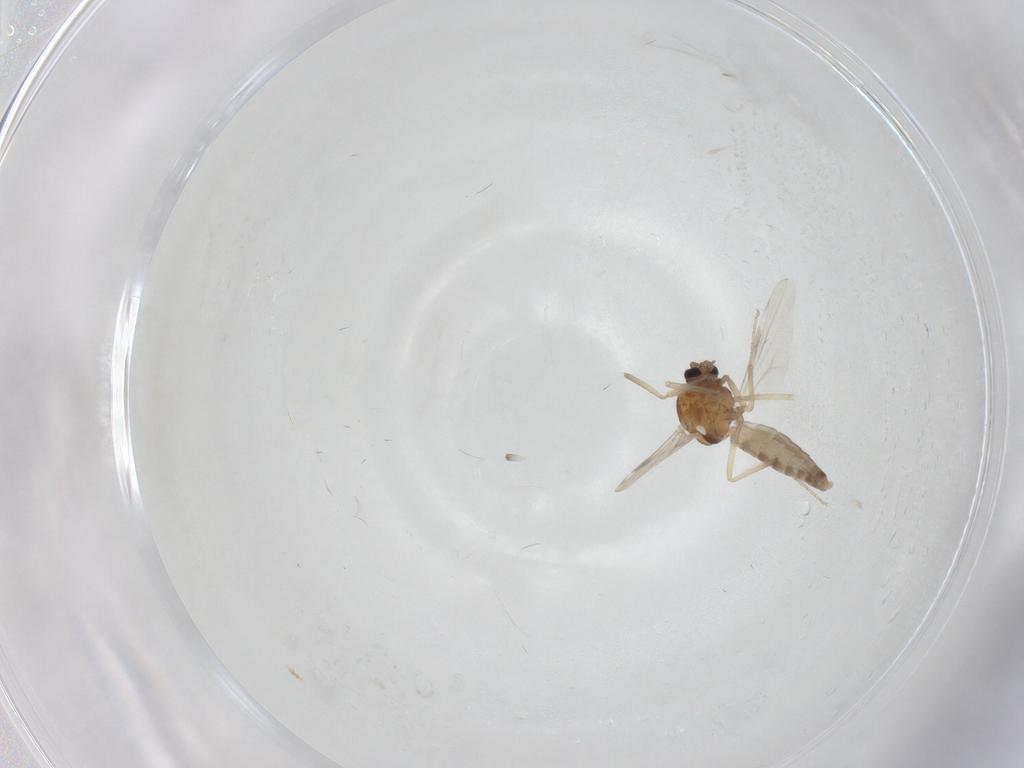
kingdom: Animalia
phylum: Arthropoda
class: Insecta
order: Diptera
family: Ceratopogonidae
